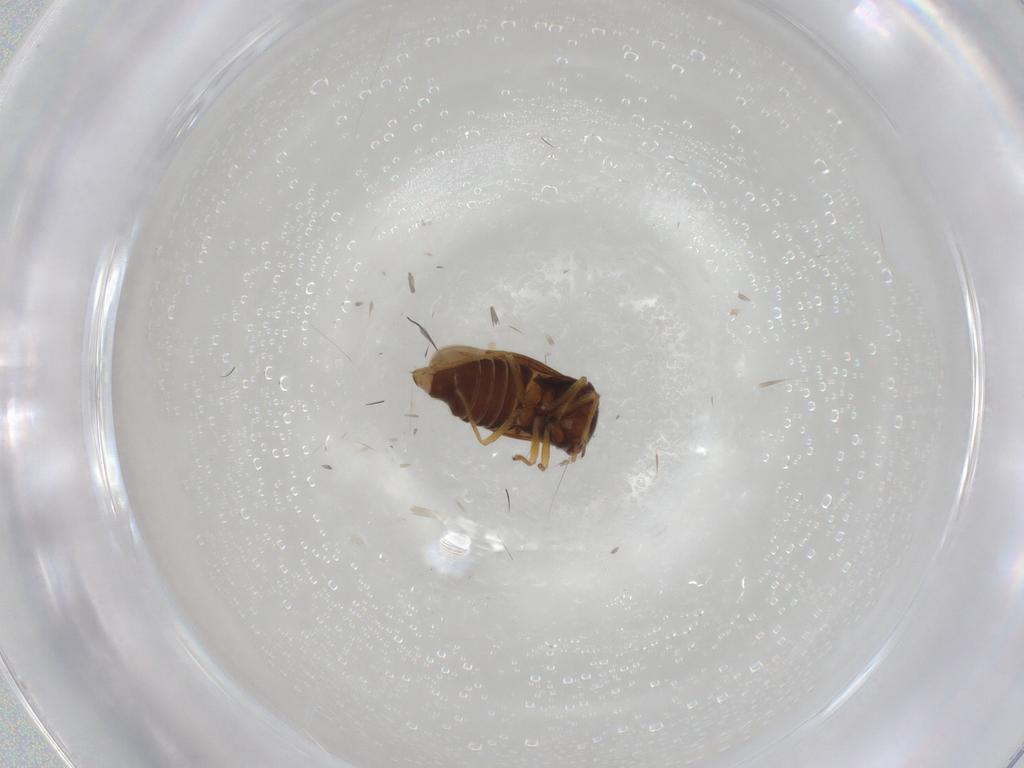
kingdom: Animalia
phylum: Arthropoda
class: Insecta
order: Hemiptera
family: Schizopteridae
